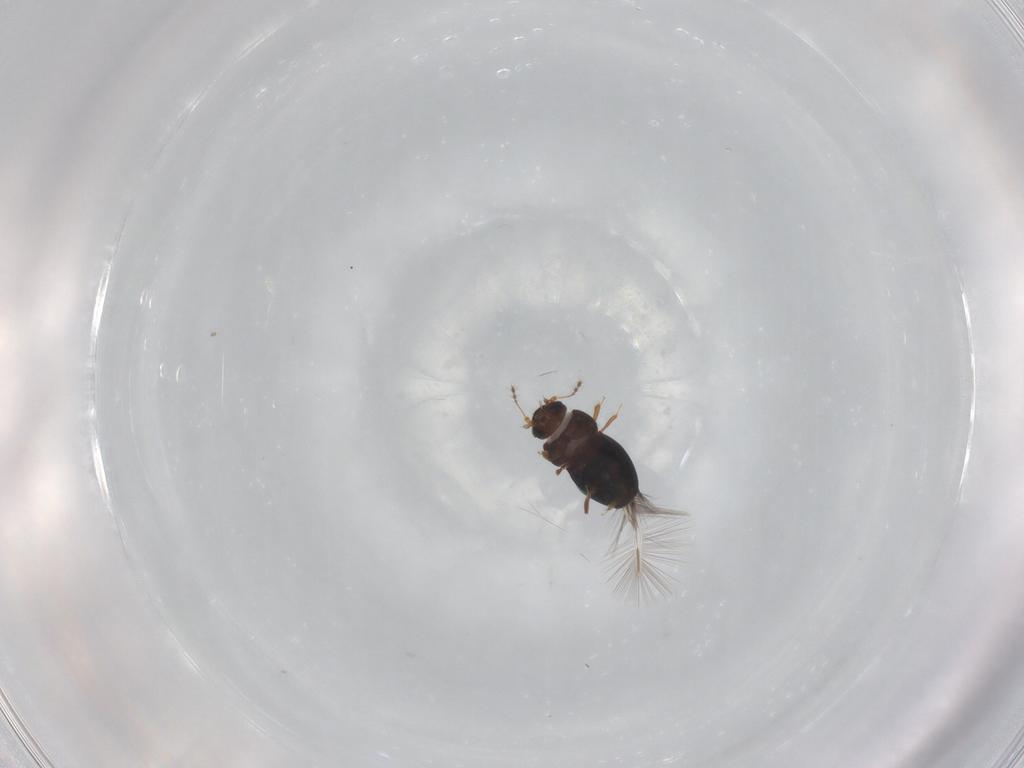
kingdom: Animalia
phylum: Arthropoda
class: Insecta
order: Coleoptera
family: Ptiliidae
